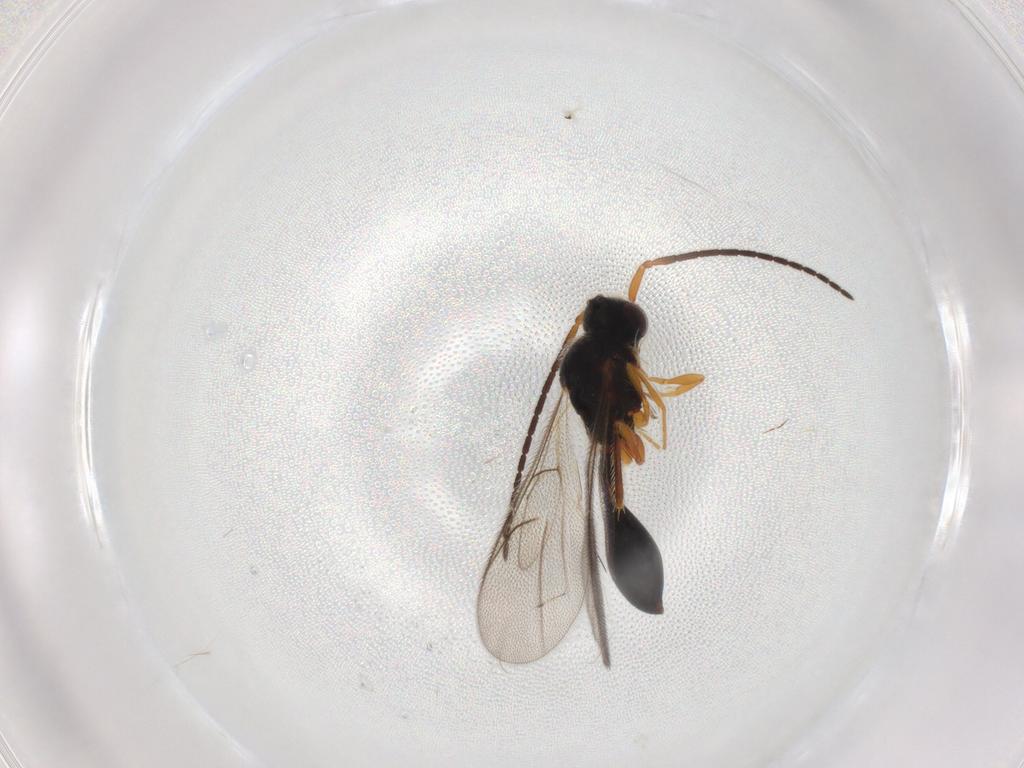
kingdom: Animalia
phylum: Arthropoda
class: Insecta
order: Hymenoptera
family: Diapriidae
